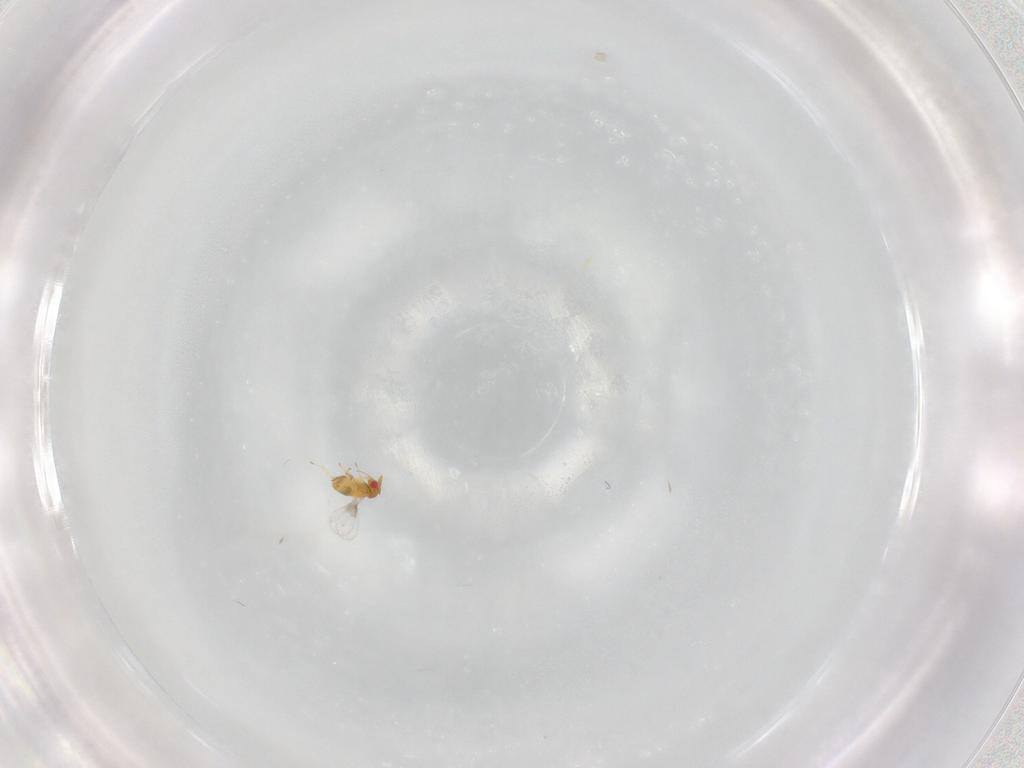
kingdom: Animalia
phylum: Arthropoda
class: Insecta
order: Hymenoptera
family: Trichogrammatidae
